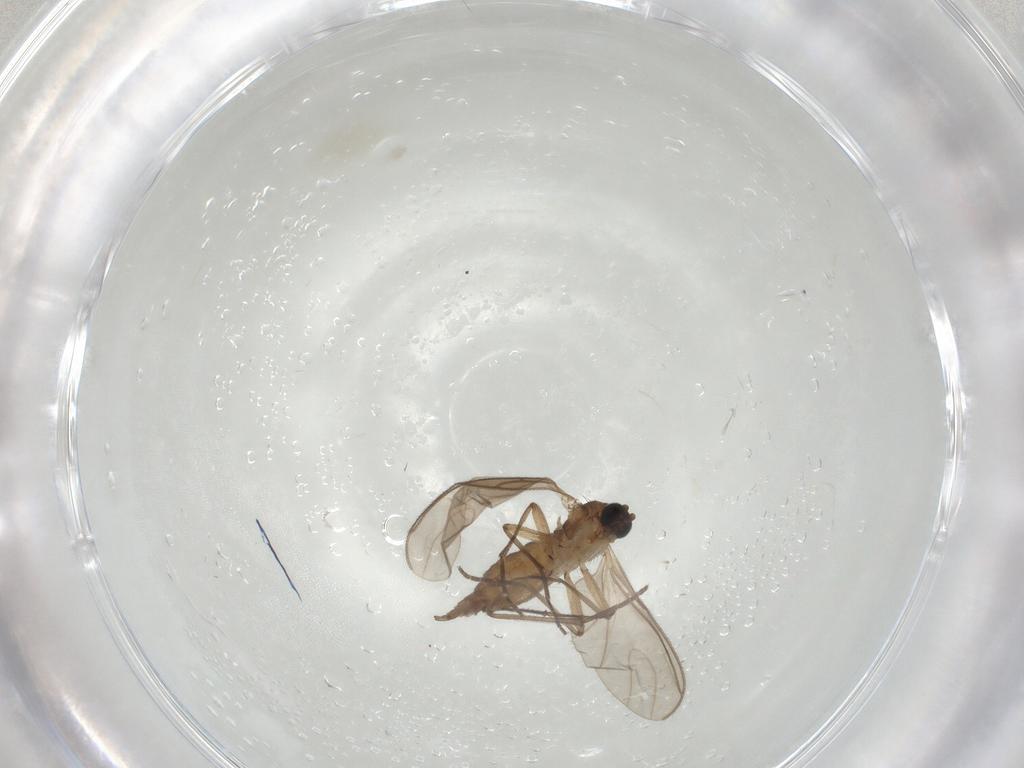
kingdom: Animalia
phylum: Arthropoda
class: Insecta
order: Diptera
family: Sciaridae
